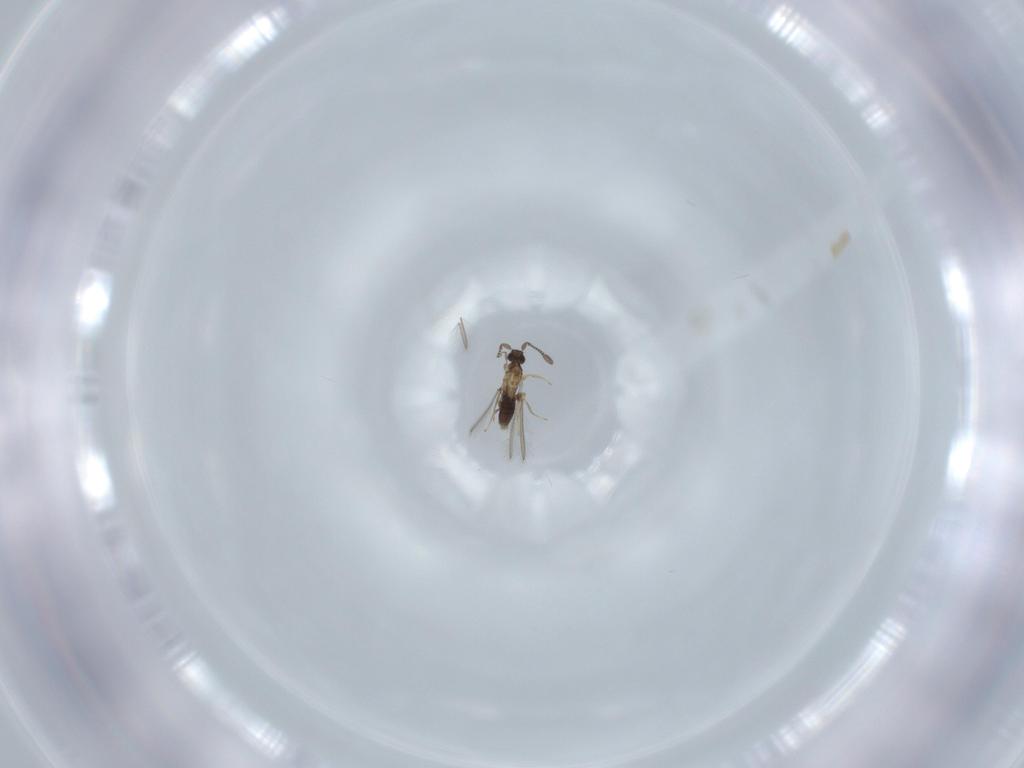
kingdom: Animalia
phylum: Arthropoda
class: Insecta
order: Hymenoptera
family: Mymaridae
